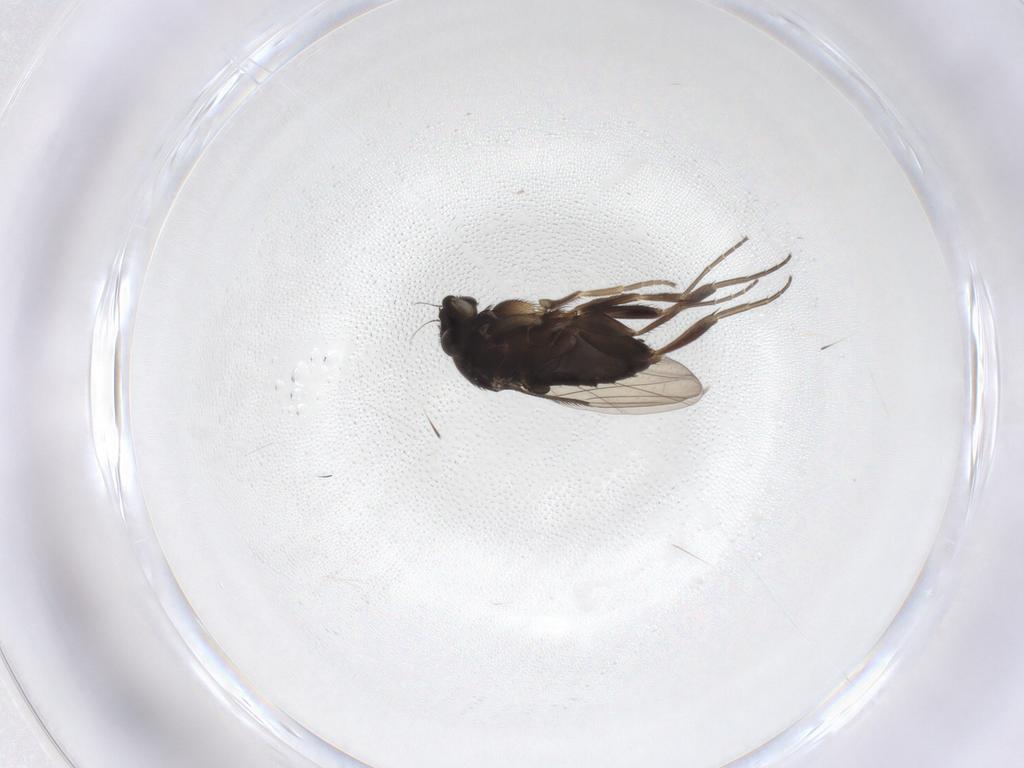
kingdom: Animalia
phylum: Arthropoda
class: Insecta
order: Diptera
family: Phoridae
